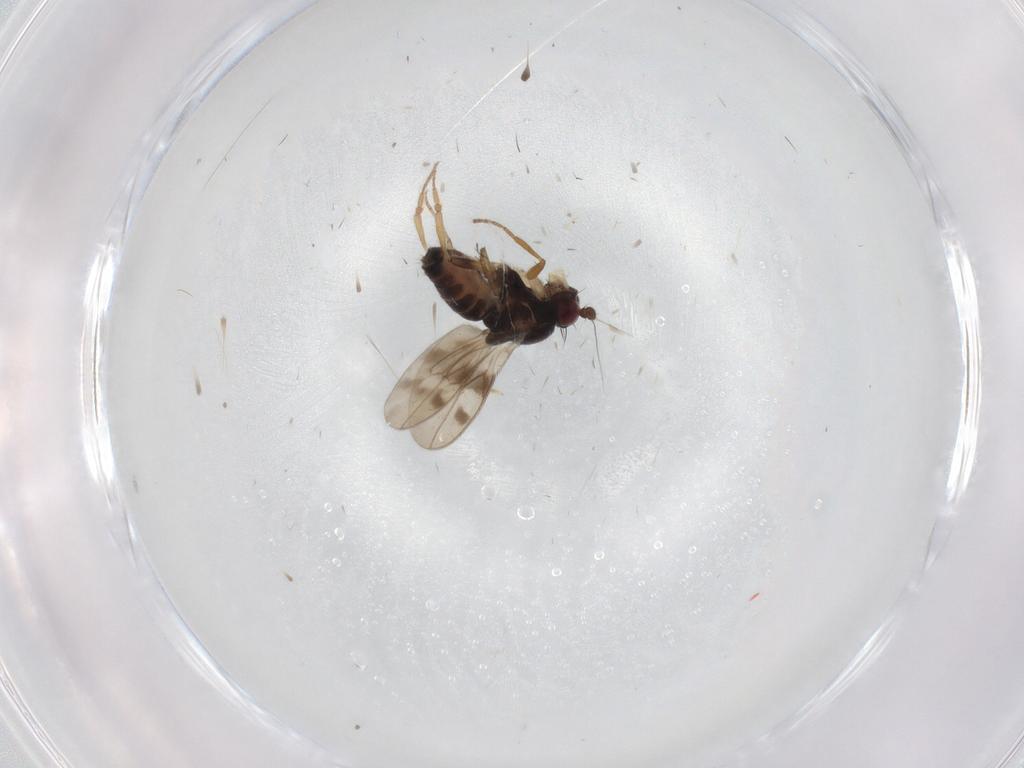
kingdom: Animalia
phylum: Arthropoda
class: Insecta
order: Diptera
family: Sphaeroceridae
